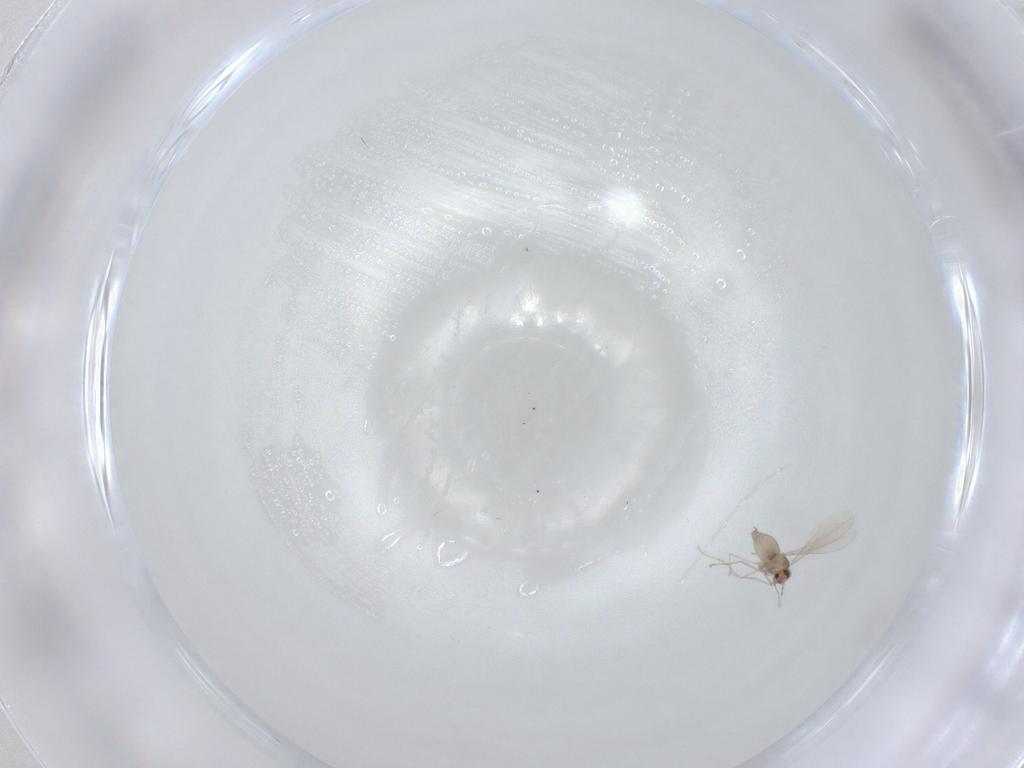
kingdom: Animalia
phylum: Arthropoda
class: Insecta
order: Diptera
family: Cecidomyiidae
